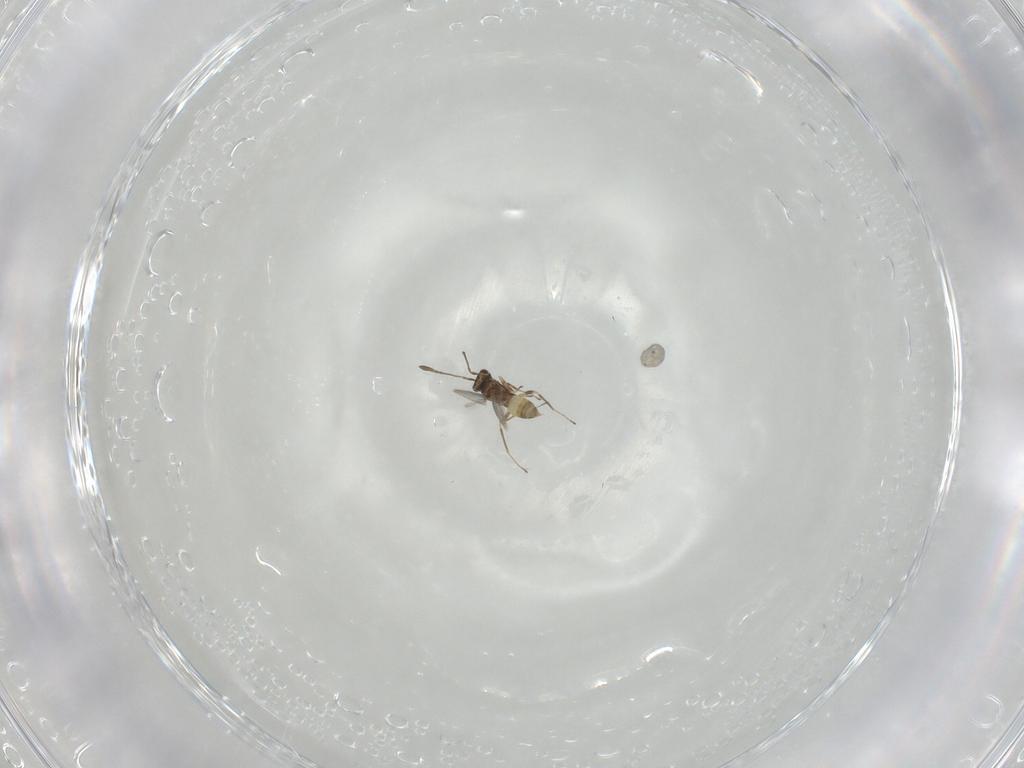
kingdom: Animalia
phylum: Arthropoda
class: Insecta
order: Hymenoptera
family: Mymaridae
